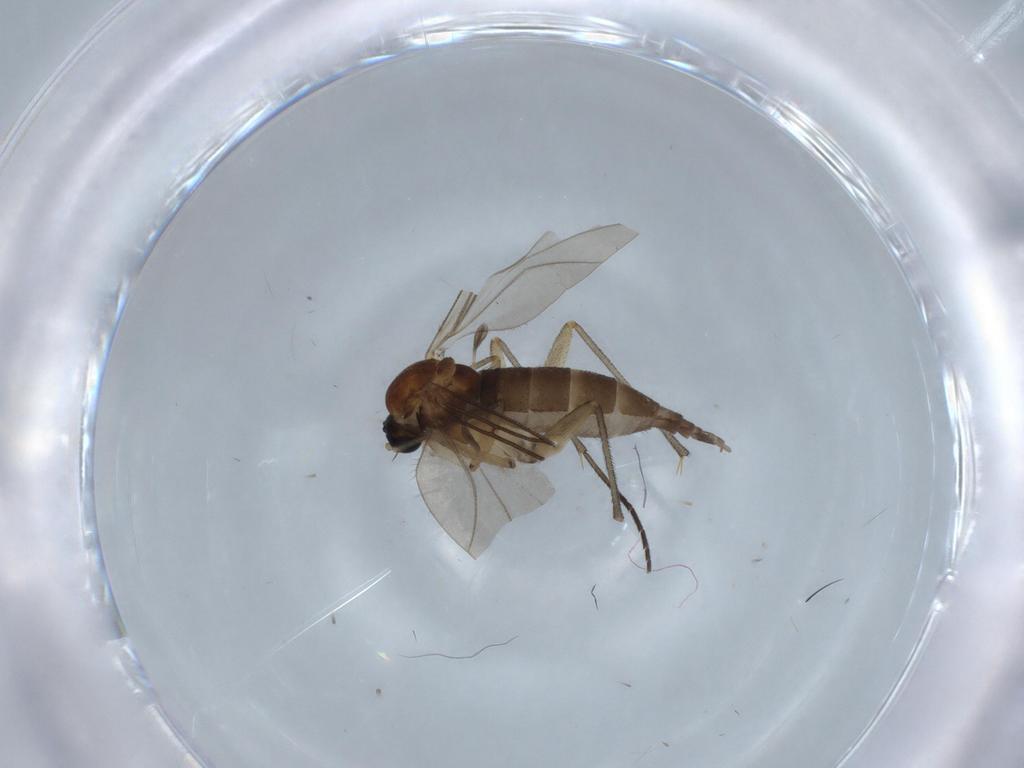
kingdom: Animalia
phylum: Arthropoda
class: Insecta
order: Diptera
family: Sciaridae
